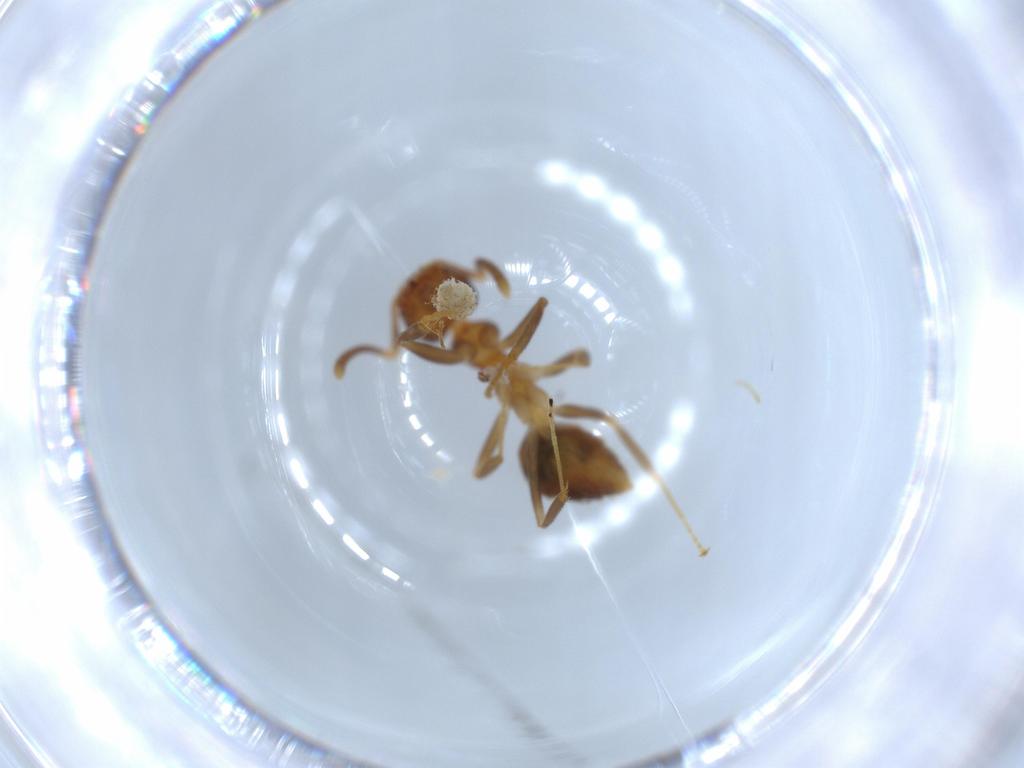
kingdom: Animalia
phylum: Arthropoda
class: Insecta
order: Hymenoptera
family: Formicidae
